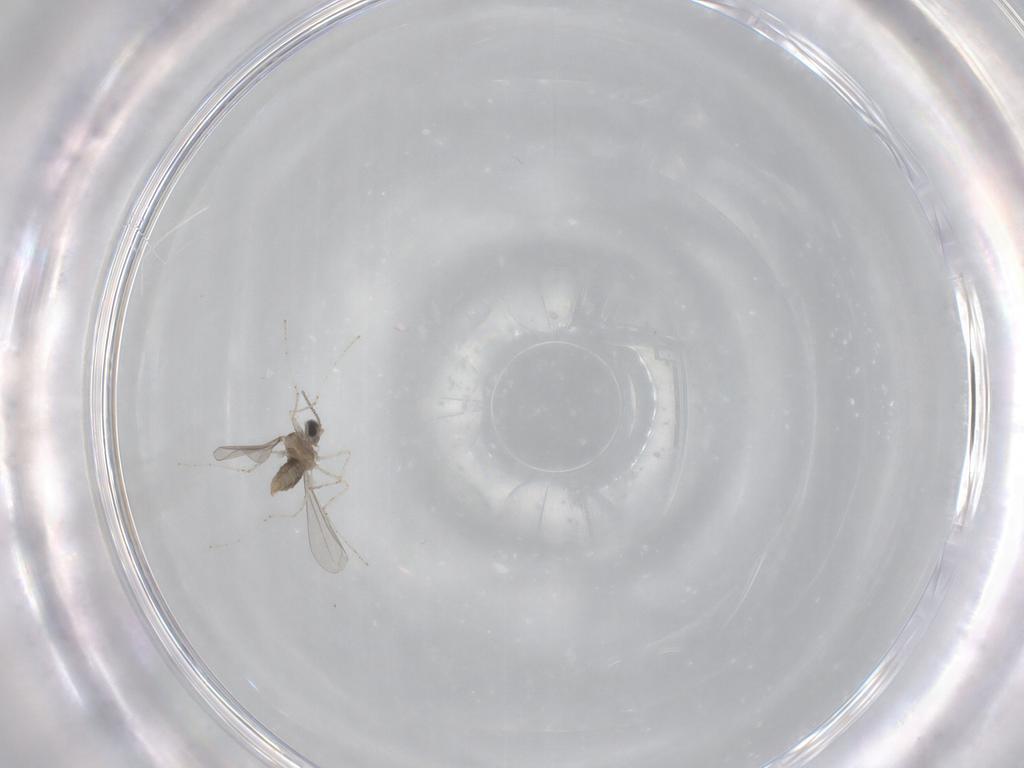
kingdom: Animalia
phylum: Arthropoda
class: Insecta
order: Diptera
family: Cecidomyiidae
